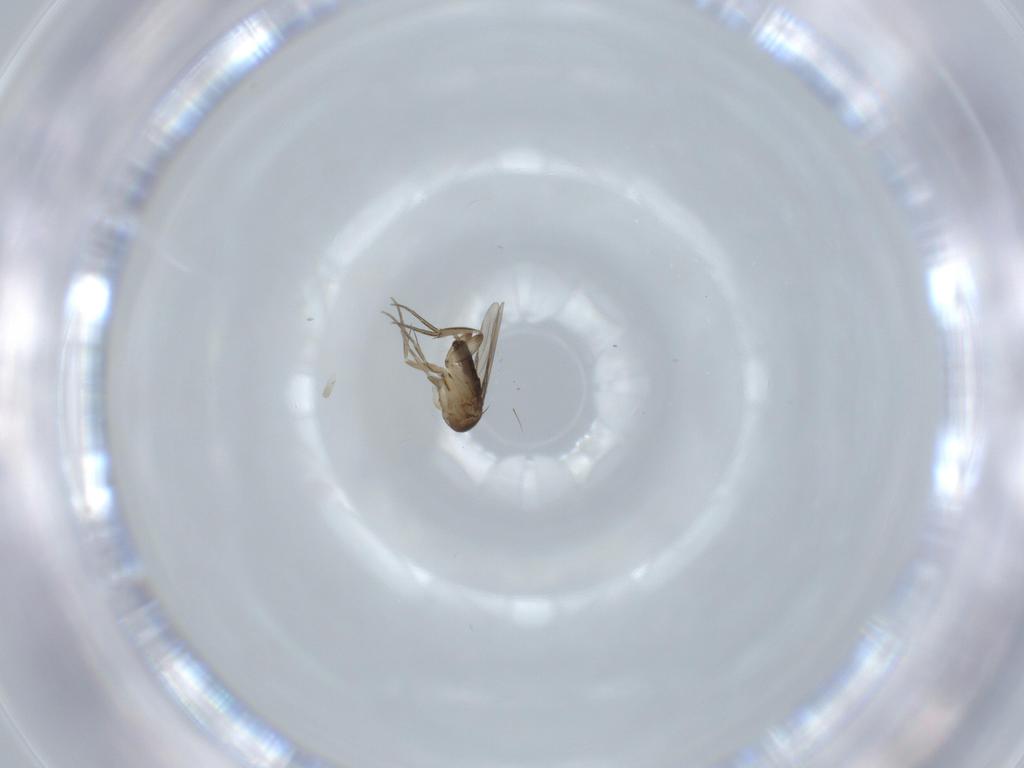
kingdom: Animalia
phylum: Arthropoda
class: Insecta
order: Diptera
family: Phoridae
